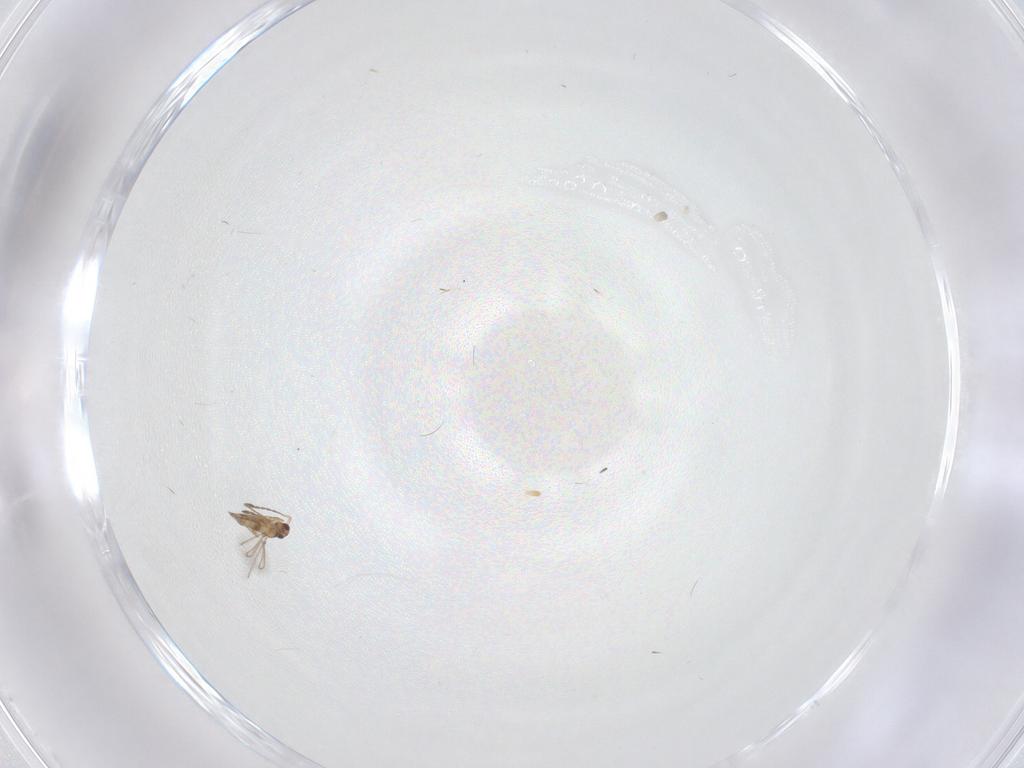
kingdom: Animalia
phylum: Arthropoda
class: Insecta
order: Hymenoptera
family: Mymaridae
